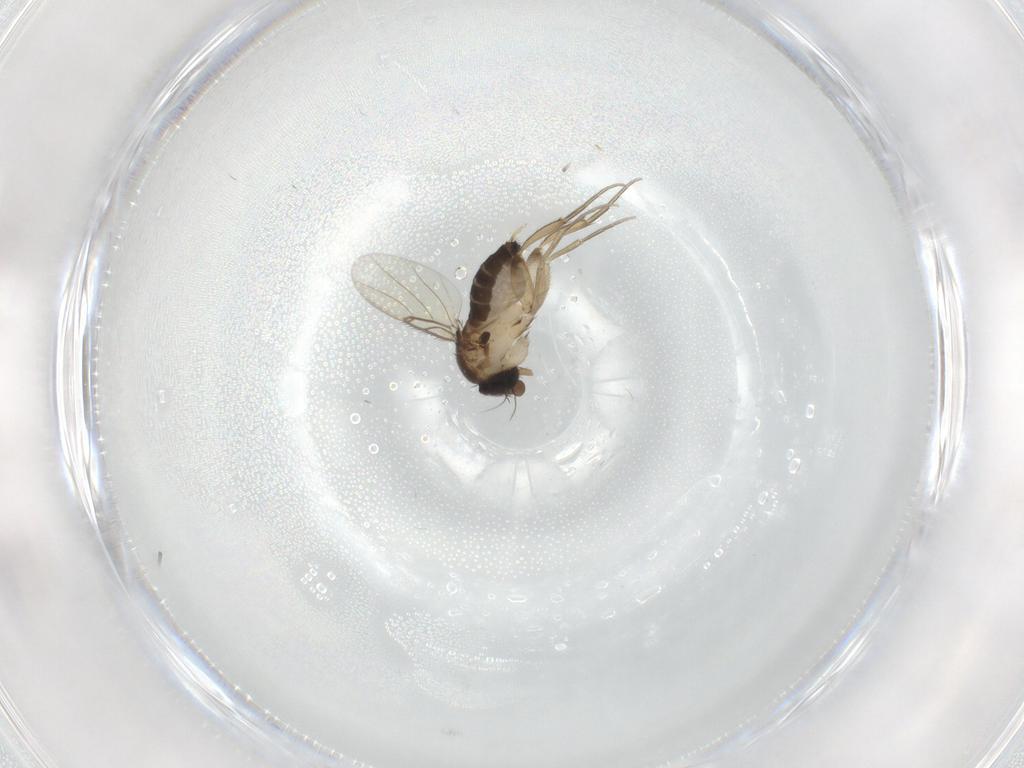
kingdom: Animalia
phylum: Arthropoda
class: Insecta
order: Diptera
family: Phoridae
